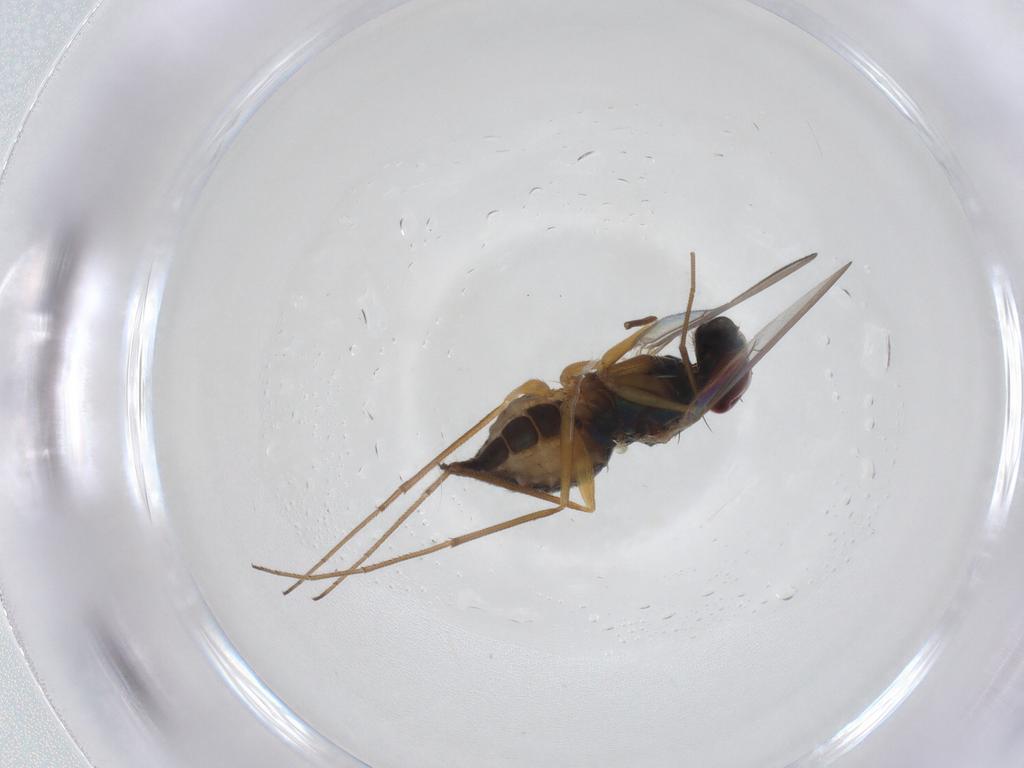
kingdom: Animalia
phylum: Arthropoda
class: Insecta
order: Diptera
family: Dolichopodidae
